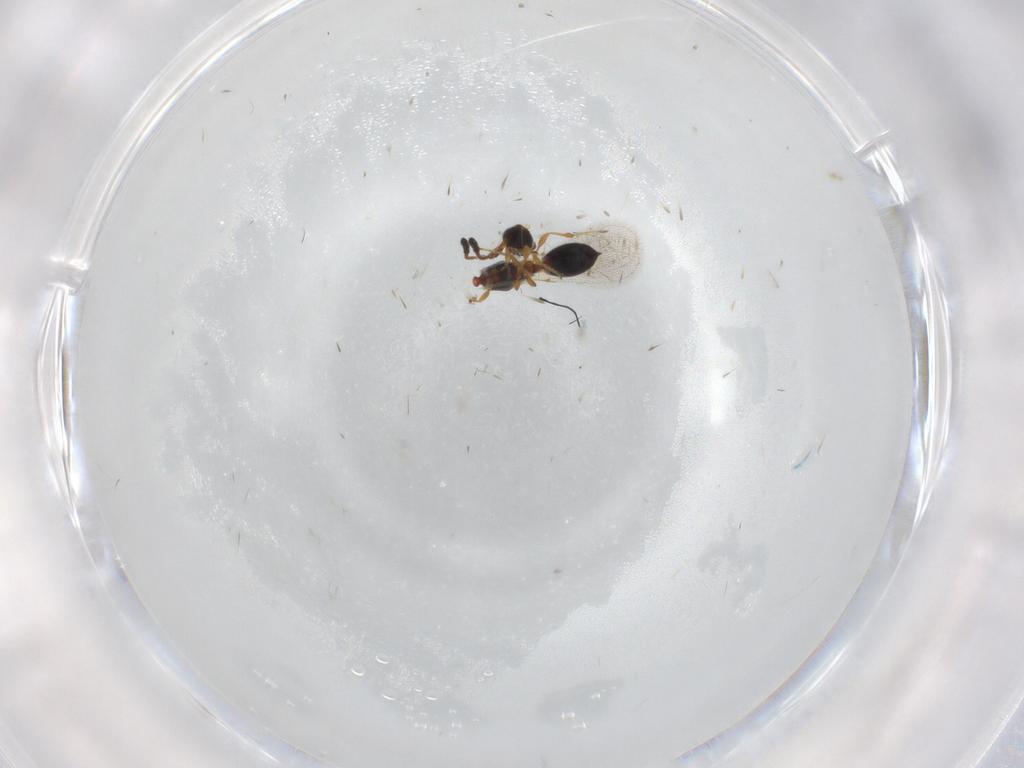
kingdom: Animalia
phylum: Arthropoda
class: Insecta
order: Hymenoptera
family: Diapriidae
